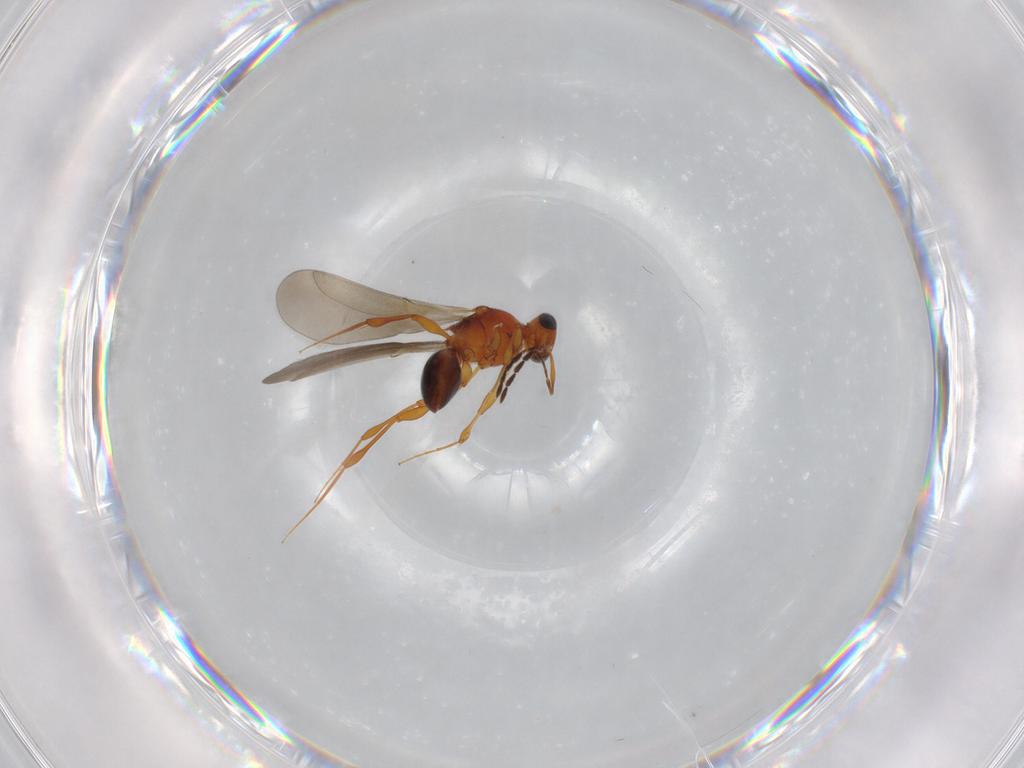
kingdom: Animalia
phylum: Arthropoda
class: Insecta
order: Hymenoptera
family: Platygastridae
